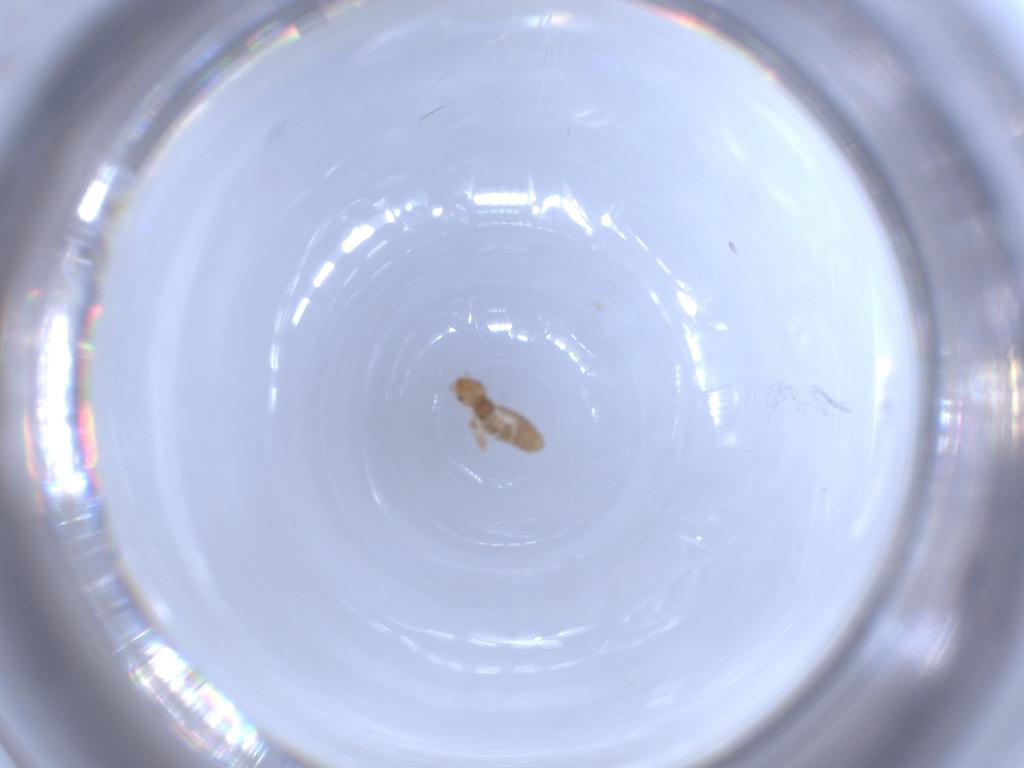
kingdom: Animalia
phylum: Arthropoda
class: Insecta
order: Psocodea
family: Liposcelididae
